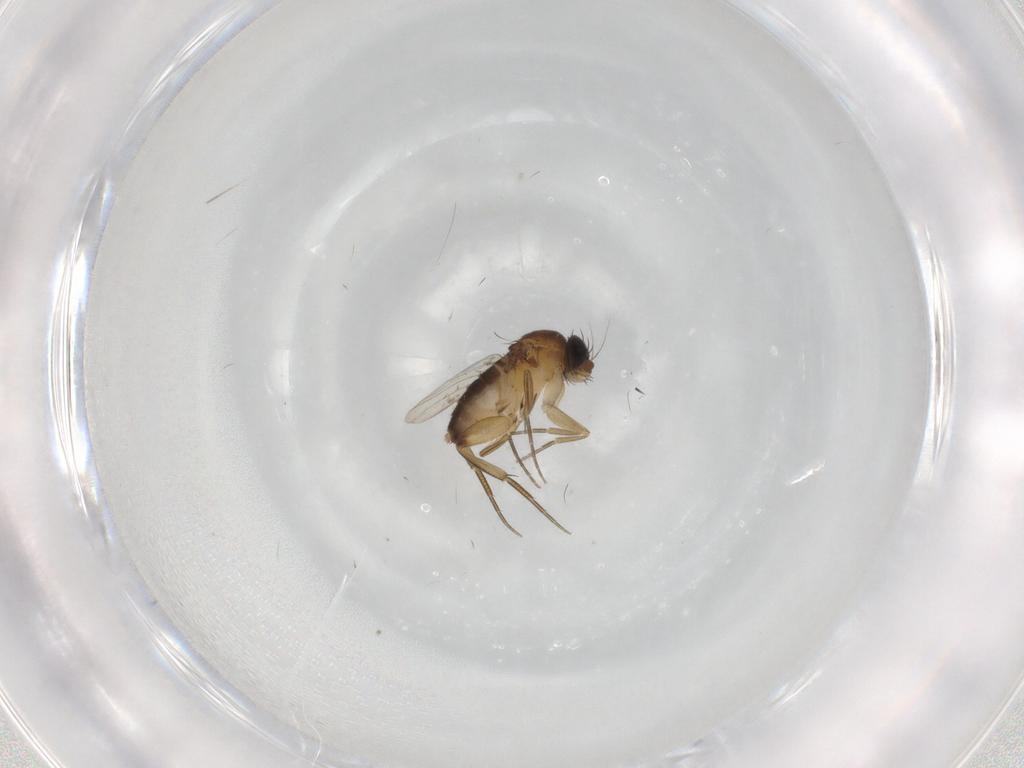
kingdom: Animalia
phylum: Arthropoda
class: Insecta
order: Diptera
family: Phoridae
